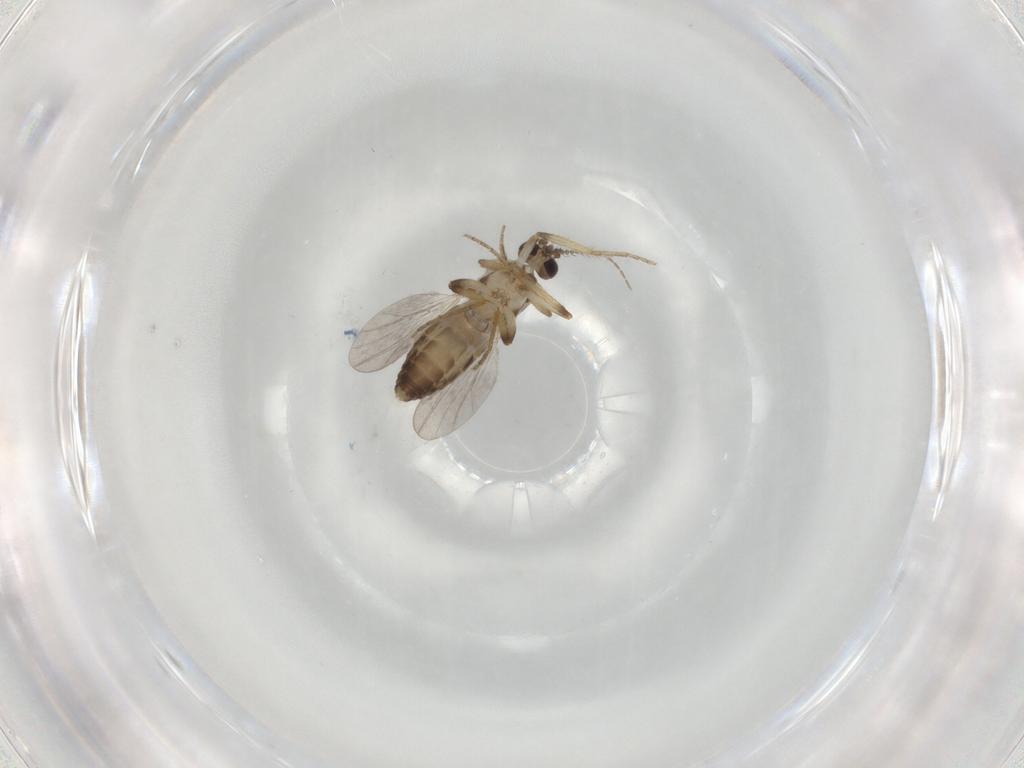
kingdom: Animalia
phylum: Arthropoda
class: Insecta
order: Diptera
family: Ceratopogonidae
